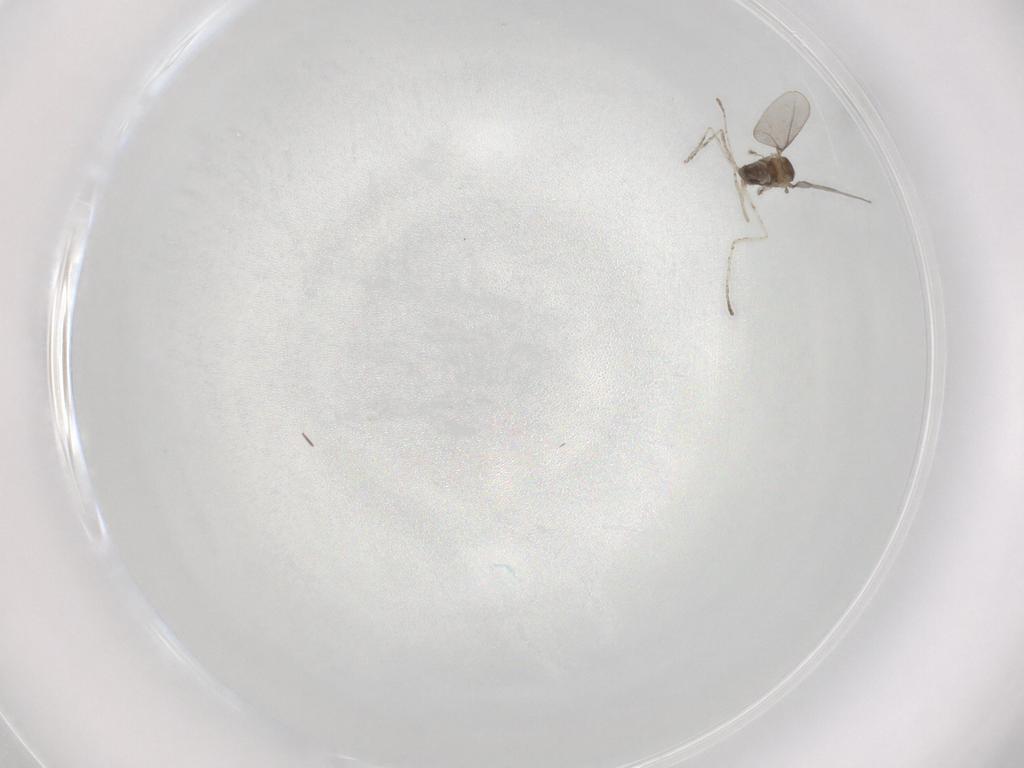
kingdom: Animalia
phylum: Arthropoda
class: Insecta
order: Diptera
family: Cecidomyiidae
